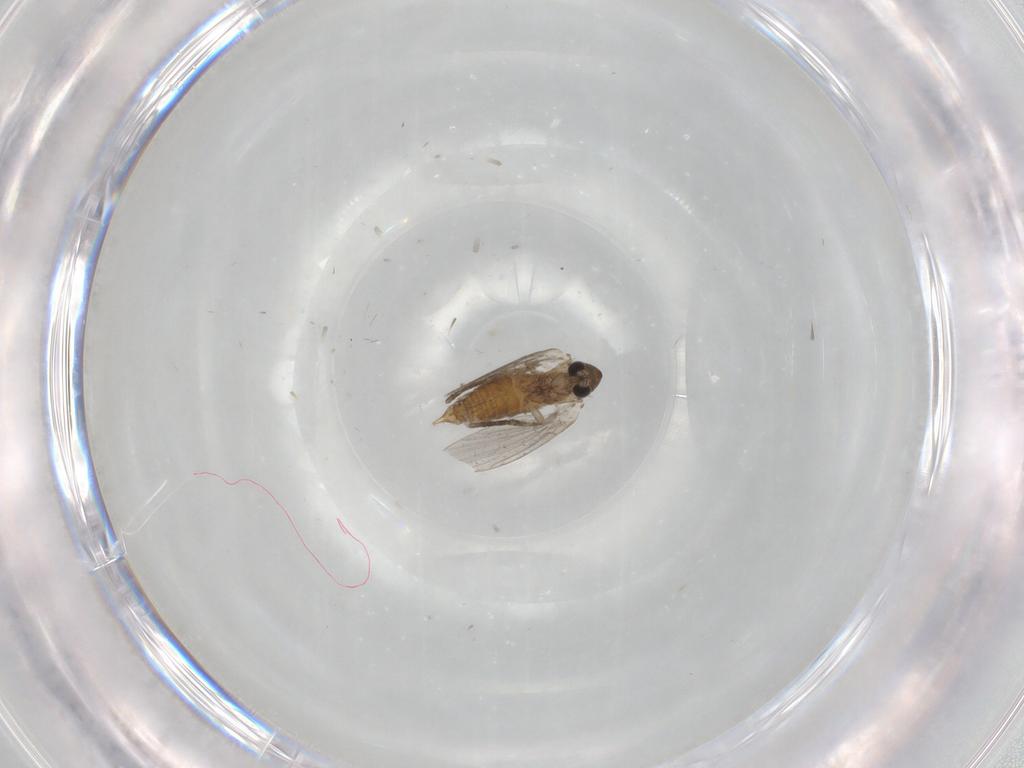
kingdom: Animalia
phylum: Arthropoda
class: Insecta
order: Diptera
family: Psychodidae
